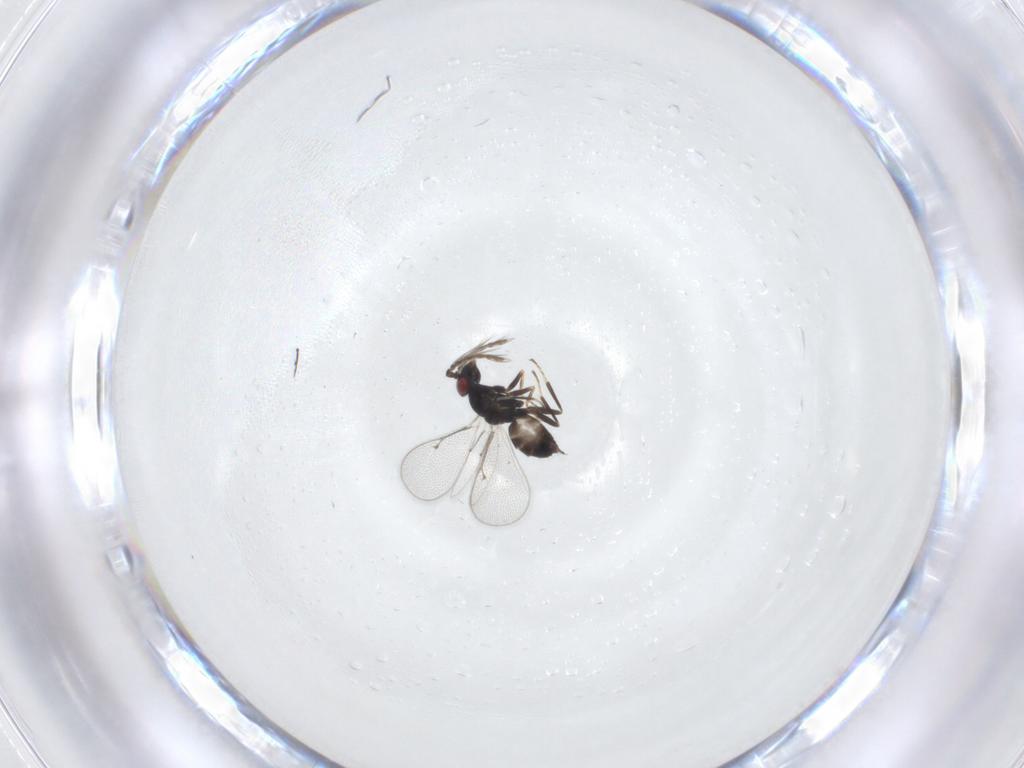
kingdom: Animalia
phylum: Arthropoda
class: Insecta
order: Hymenoptera
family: Eulophidae
